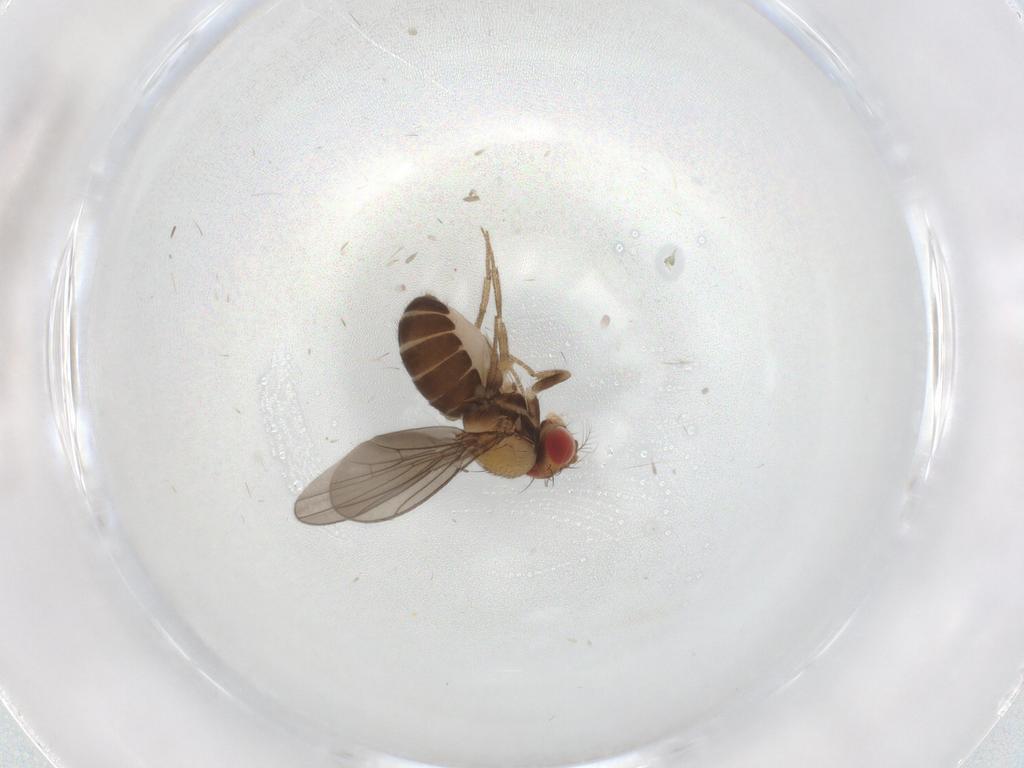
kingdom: Animalia
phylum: Arthropoda
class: Insecta
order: Diptera
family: Drosophilidae
